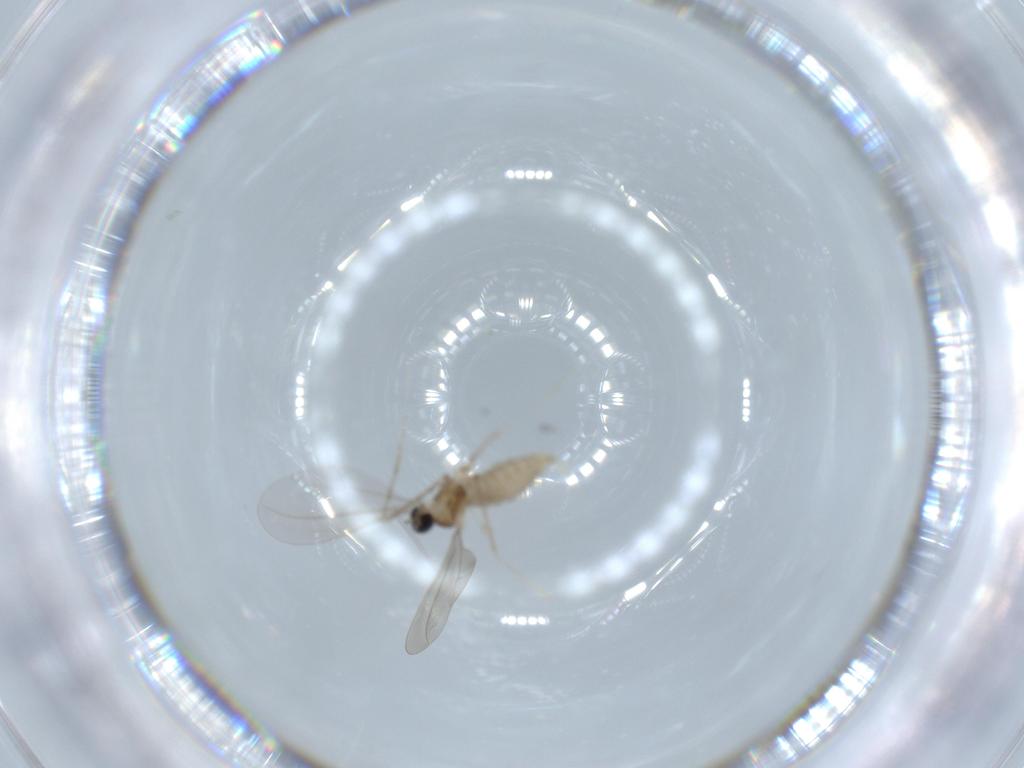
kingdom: Animalia
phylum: Arthropoda
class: Insecta
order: Diptera
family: Cecidomyiidae
